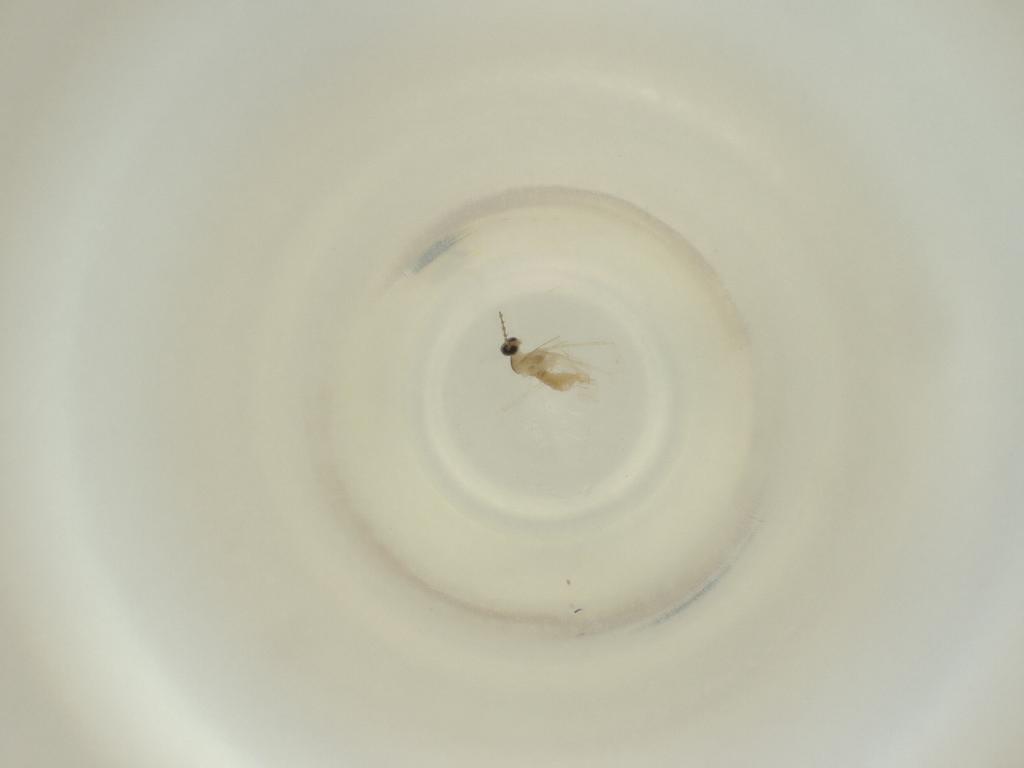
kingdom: Animalia
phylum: Arthropoda
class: Insecta
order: Diptera
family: Cecidomyiidae
